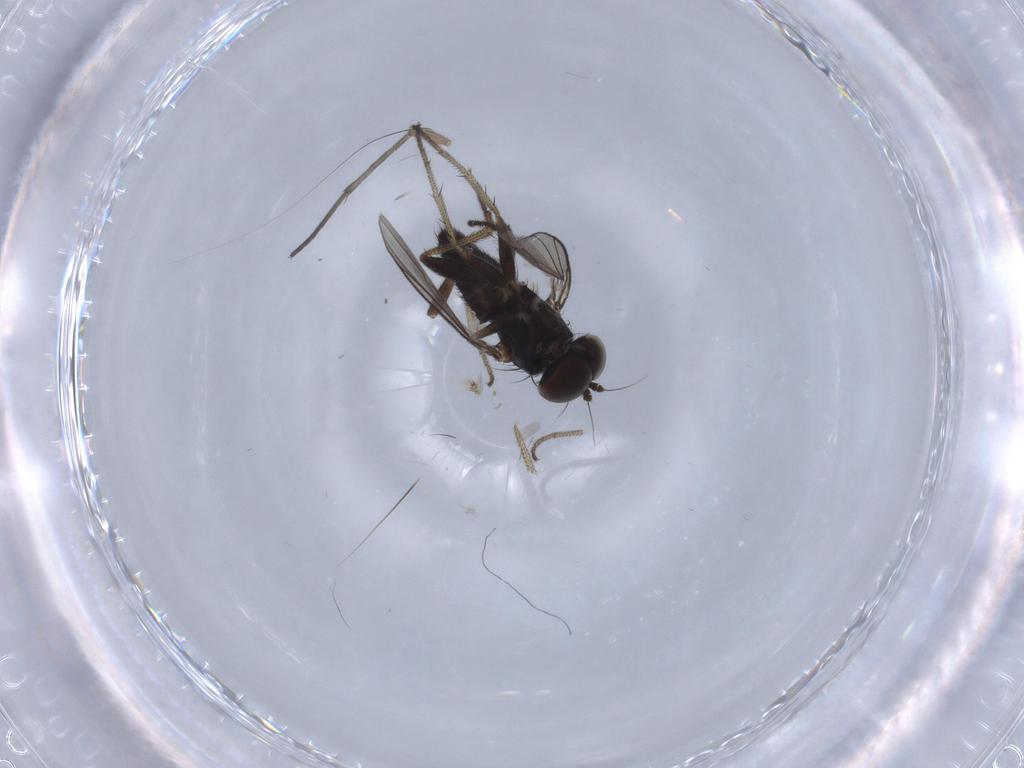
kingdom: Animalia
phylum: Arthropoda
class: Insecta
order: Diptera
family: Dolichopodidae
